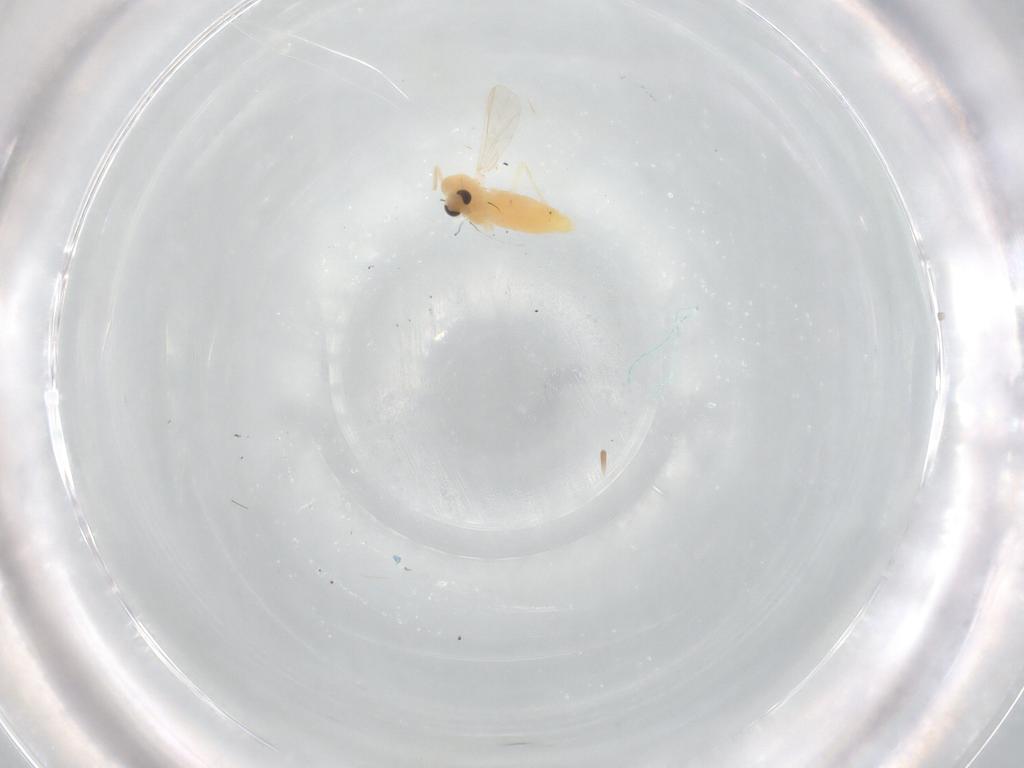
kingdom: Animalia
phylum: Arthropoda
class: Insecta
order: Diptera
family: Chironomidae
